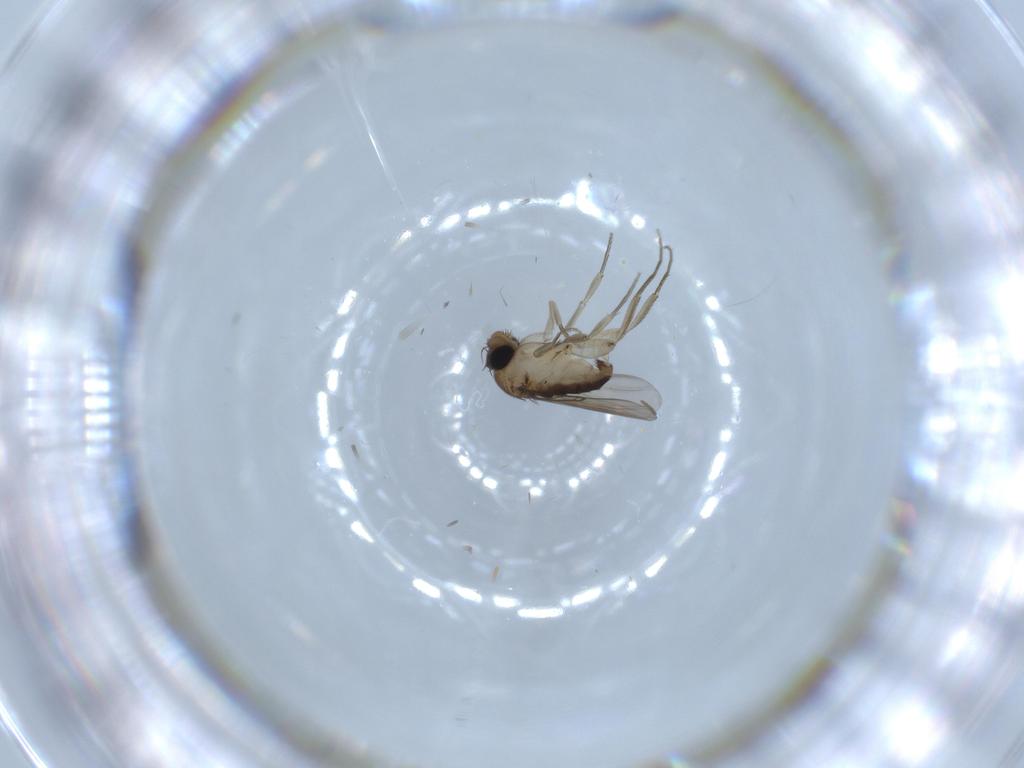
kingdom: Animalia
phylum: Arthropoda
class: Insecta
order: Diptera
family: Phoridae
